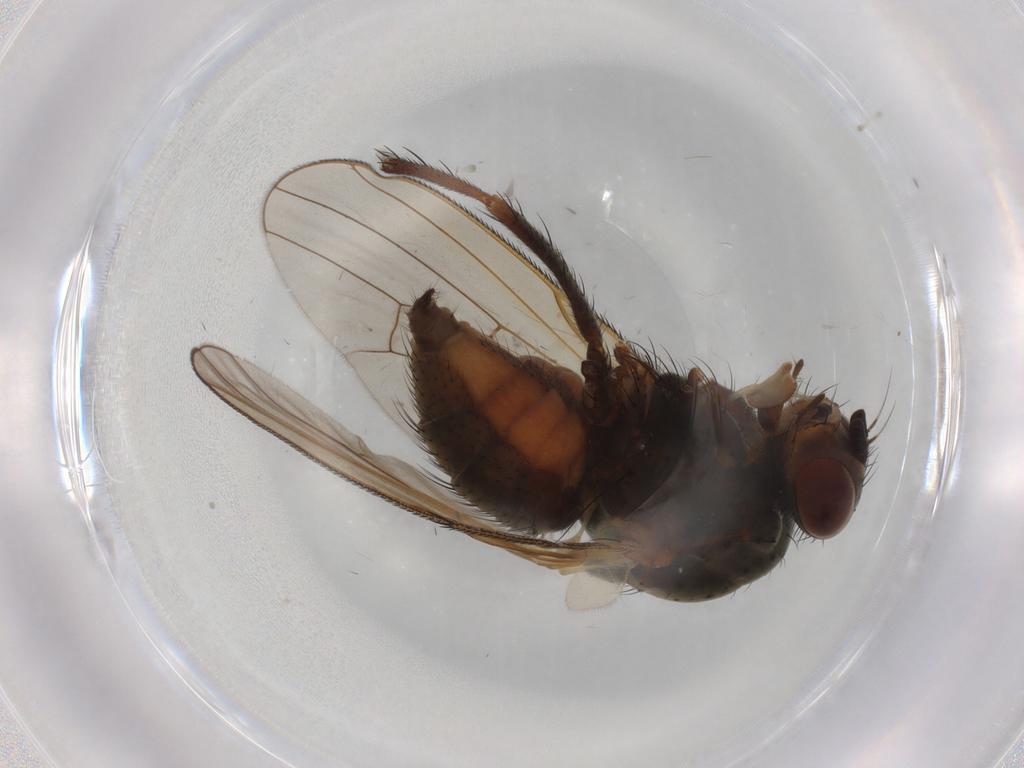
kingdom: Animalia
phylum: Arthropoda
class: Insecta
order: Diptera
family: Anthomyiidae
